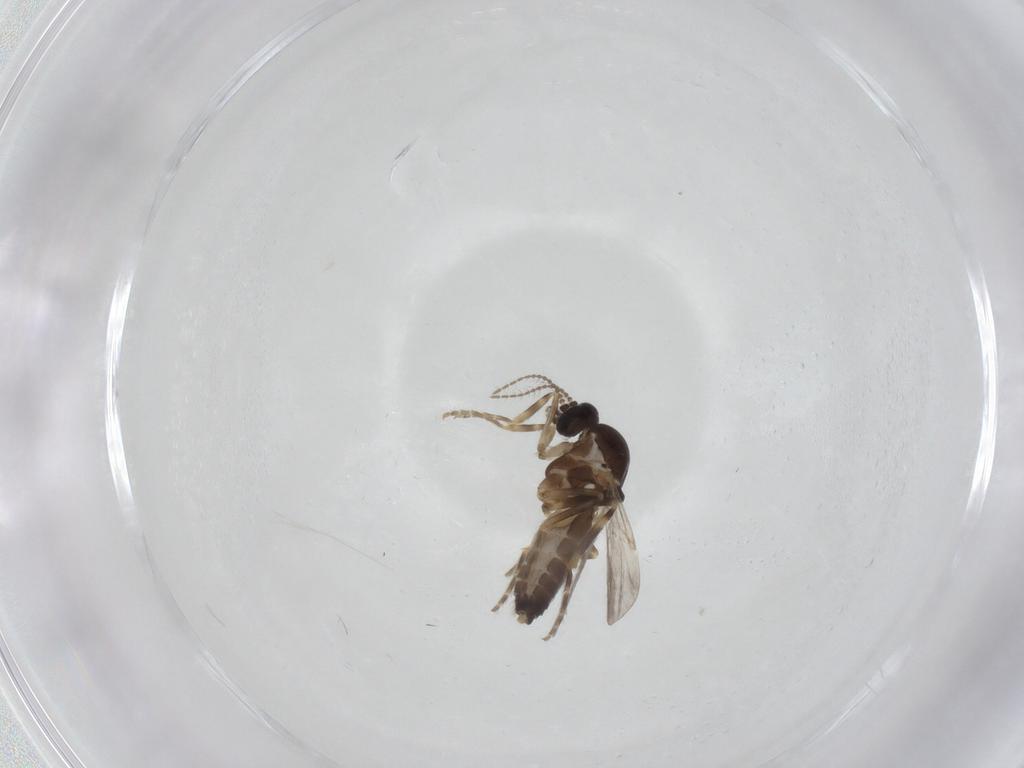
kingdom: Animalia
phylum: Arthropoda
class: Insecta
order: Diptera
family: Ceratopogonidae
